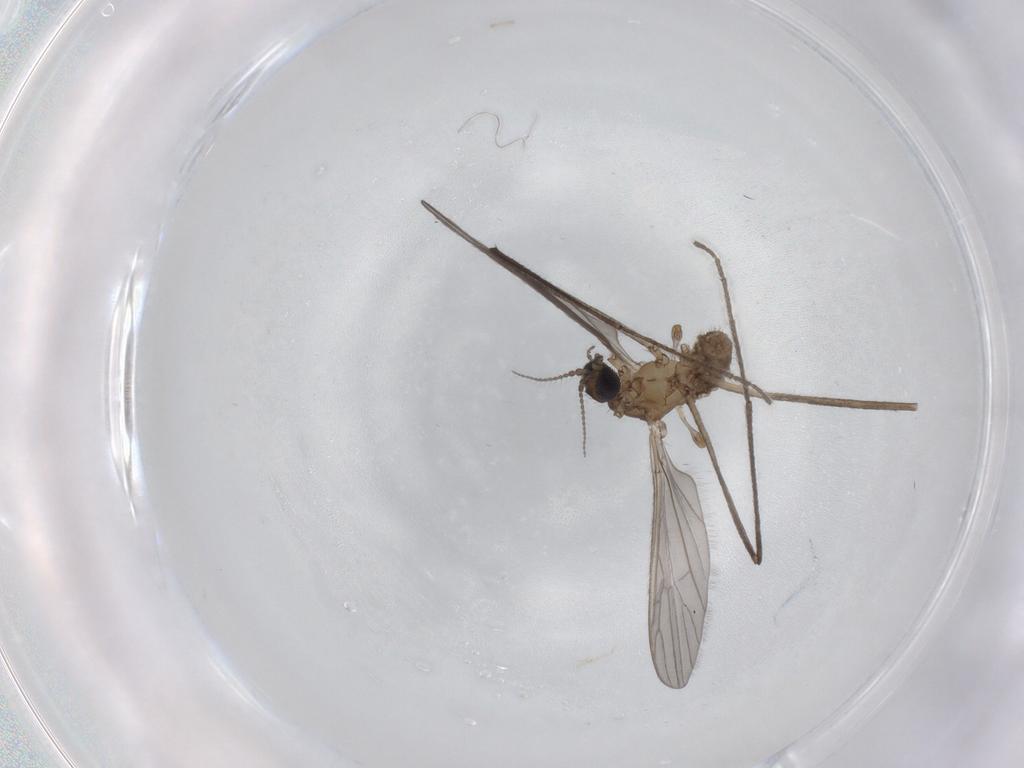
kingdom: Animalia
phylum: Arthropoda
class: Insecta
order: Diptera
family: Limoniidae
